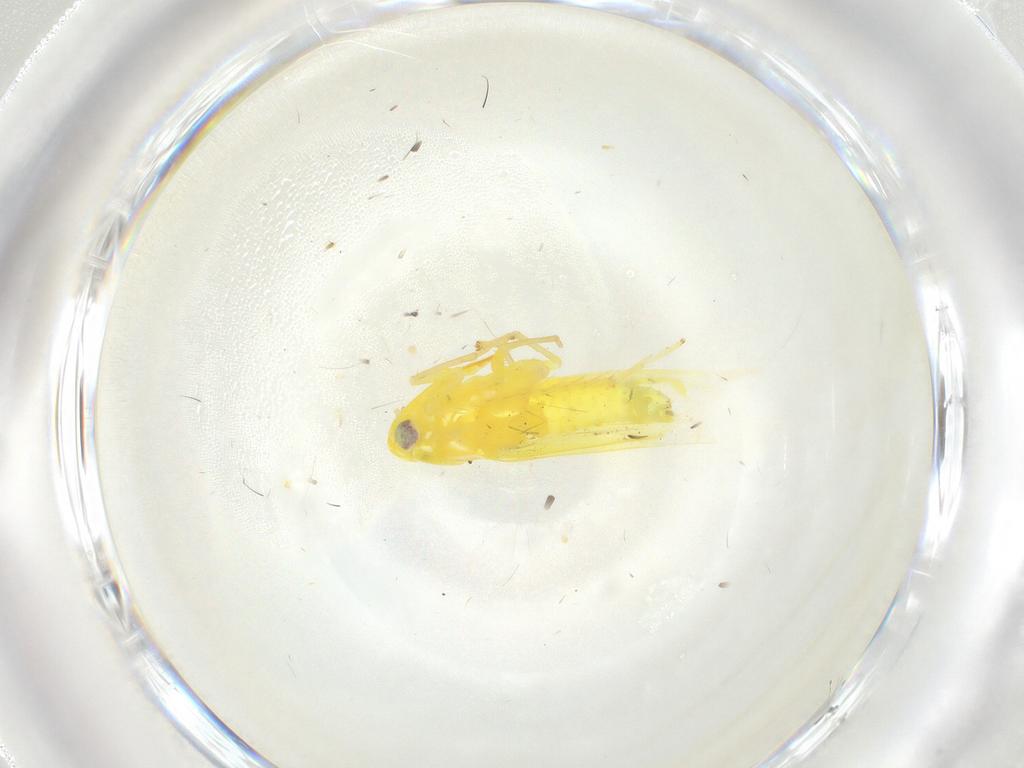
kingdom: Animalia
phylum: Arthropoda
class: Insecta
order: Hemiptera
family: Cicadellidae
